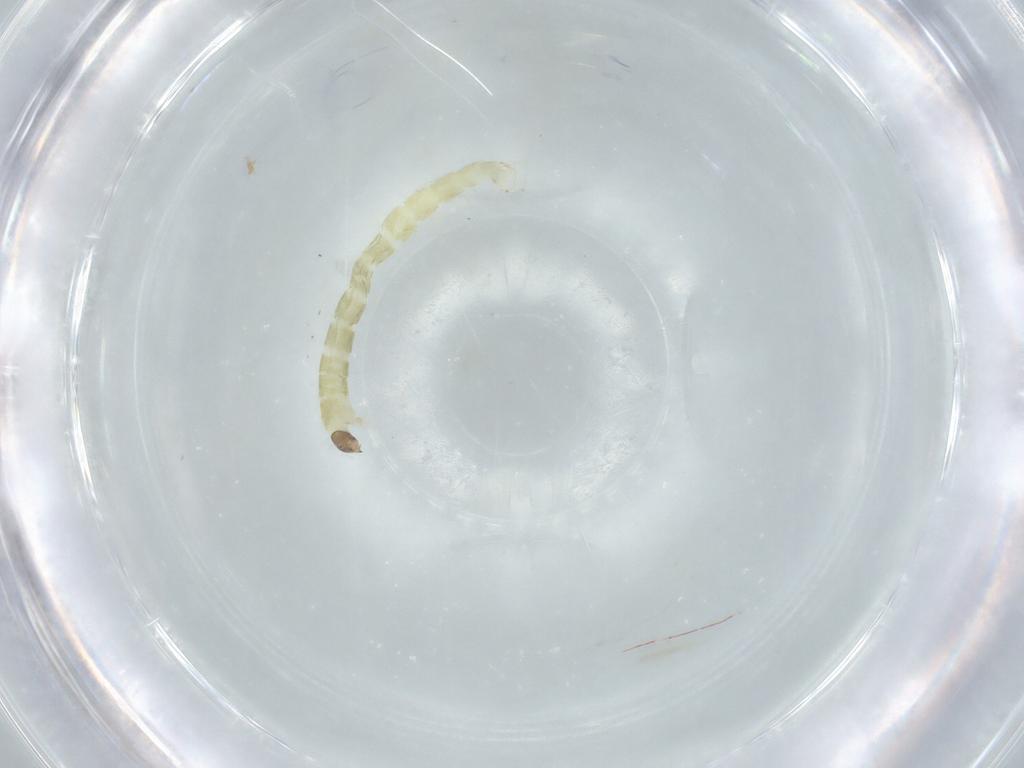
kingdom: Animalia
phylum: Arthropoda
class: Insecta
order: Diptera
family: Chironomidae
